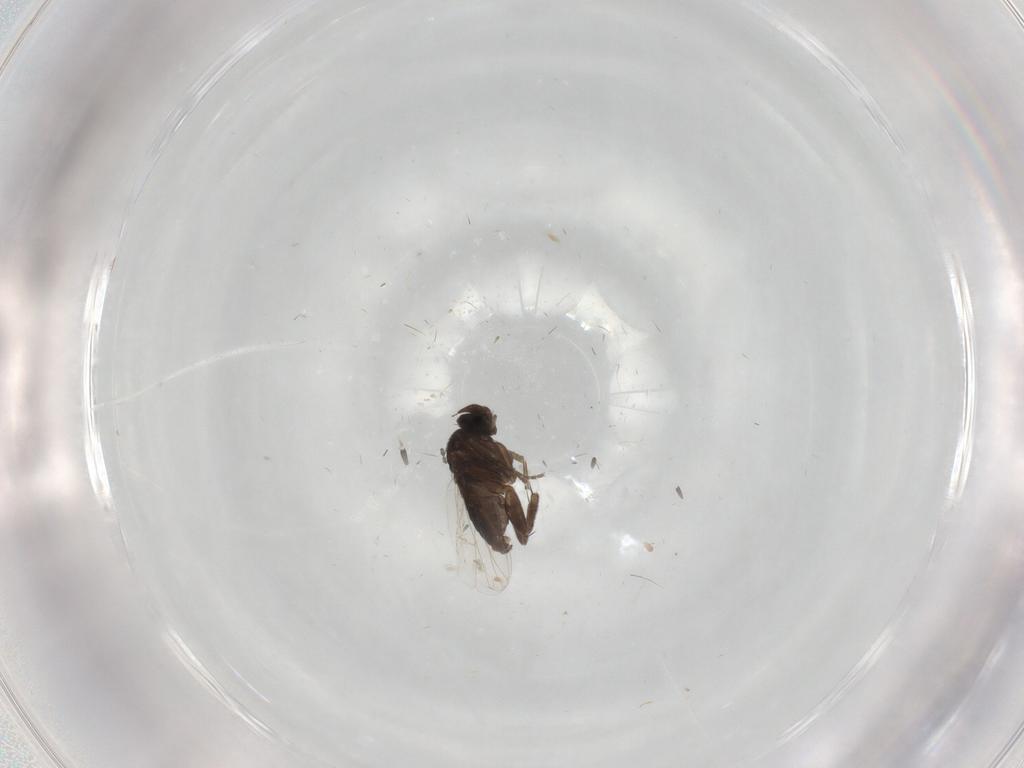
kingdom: Animalia
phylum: Arthropoda
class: Insecta
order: Diptera
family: Phoridae
